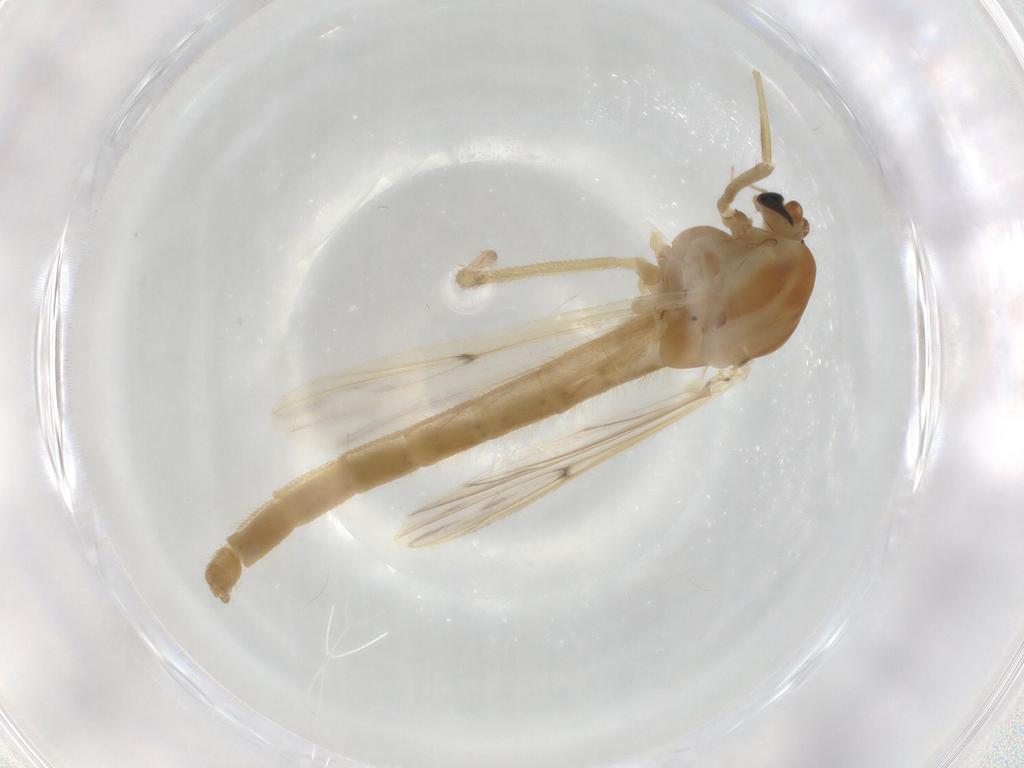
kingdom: Animalia
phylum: Arthropoda
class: Insecta
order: Diptera
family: Chironomidae
